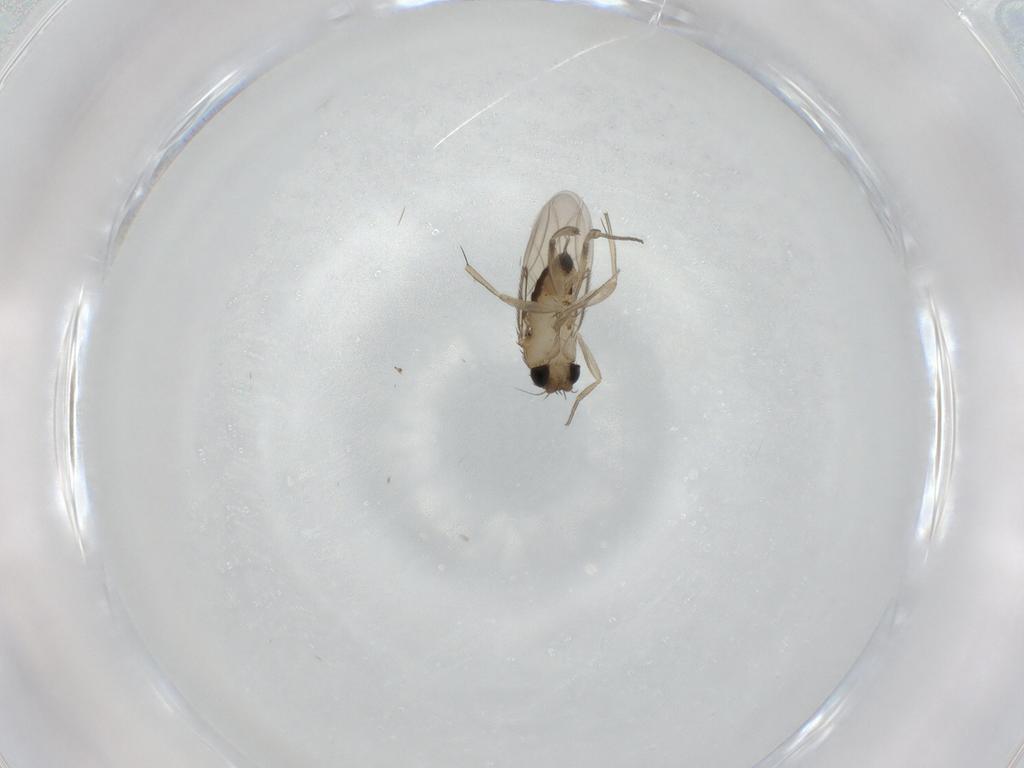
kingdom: Animalia
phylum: Arthropoda
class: Insecta
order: Diptera
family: Phoridae
